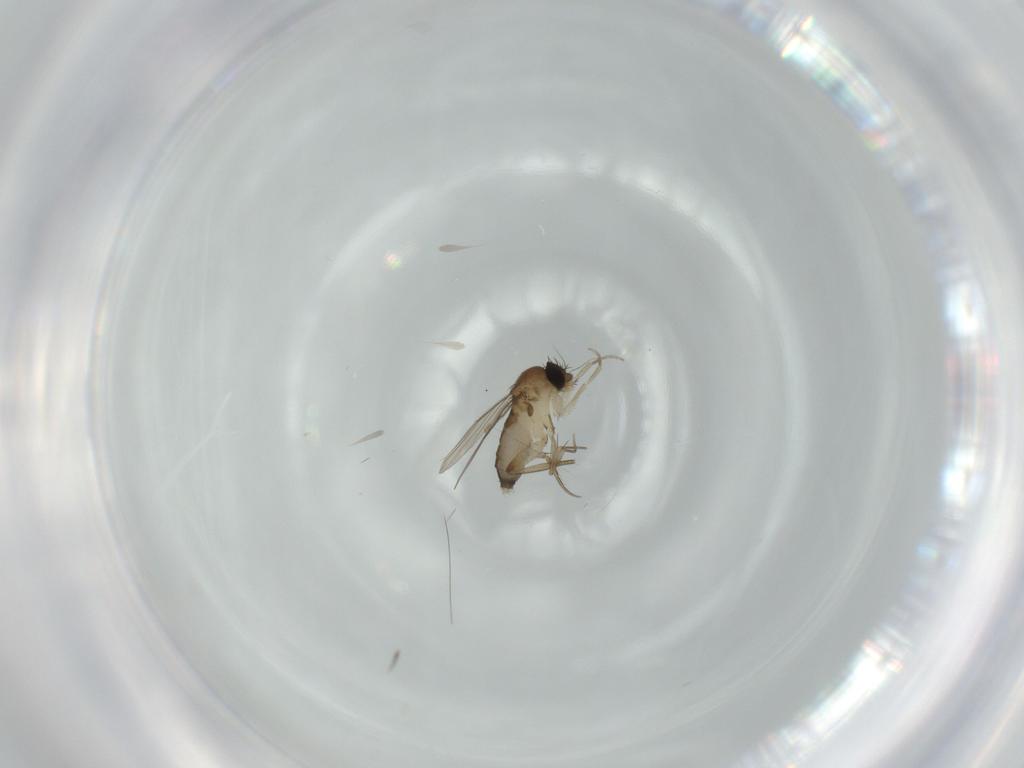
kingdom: Animalia
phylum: Arthropoda
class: Insecta
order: Diptera
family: Phoridae
